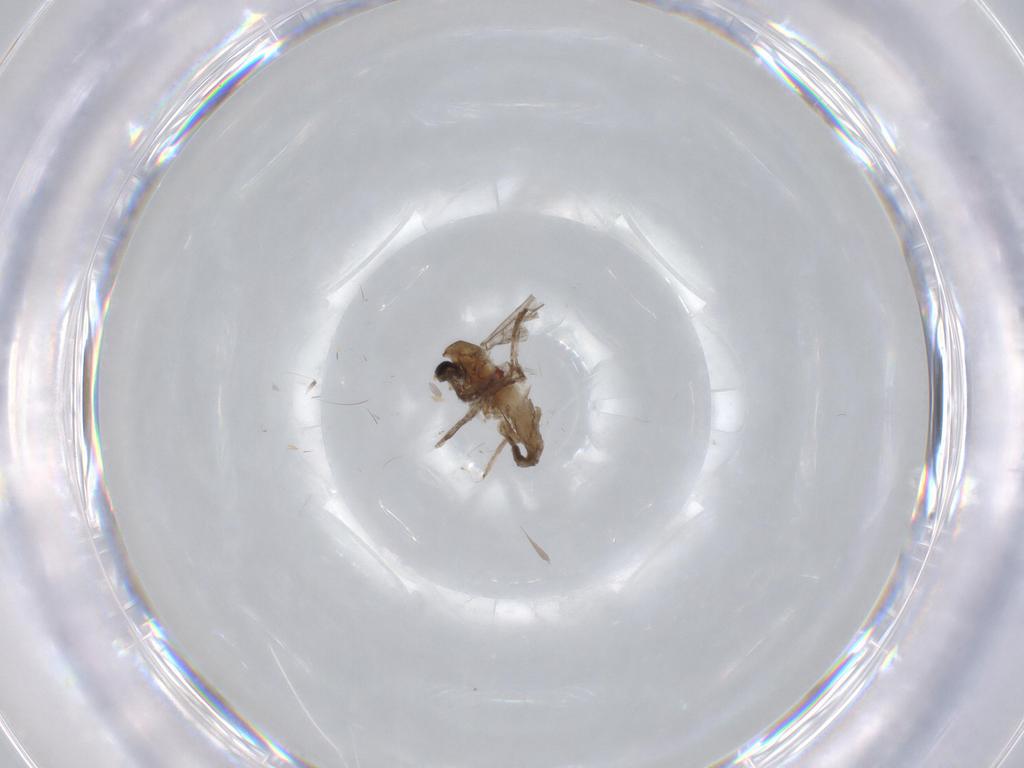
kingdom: Animalia
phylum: Arthropoda
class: Insecta
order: Diptera
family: Cecidomyiidae
